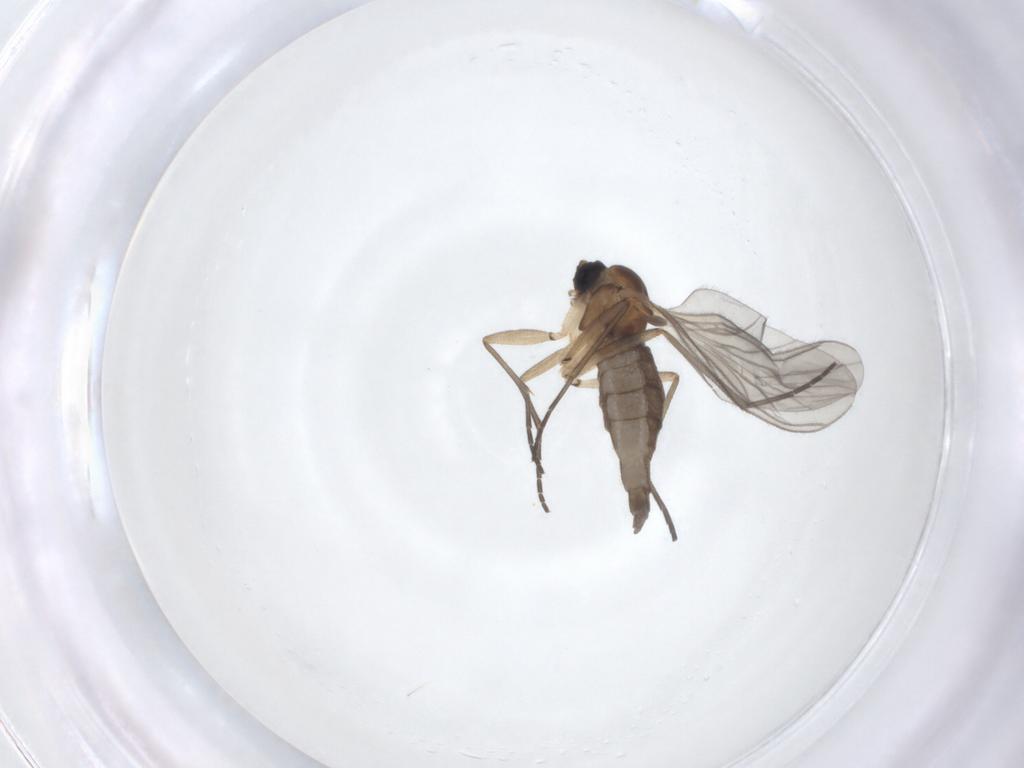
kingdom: Animalia
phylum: Arthropoda
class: Insecta
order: Diptera
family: Sciaridae
